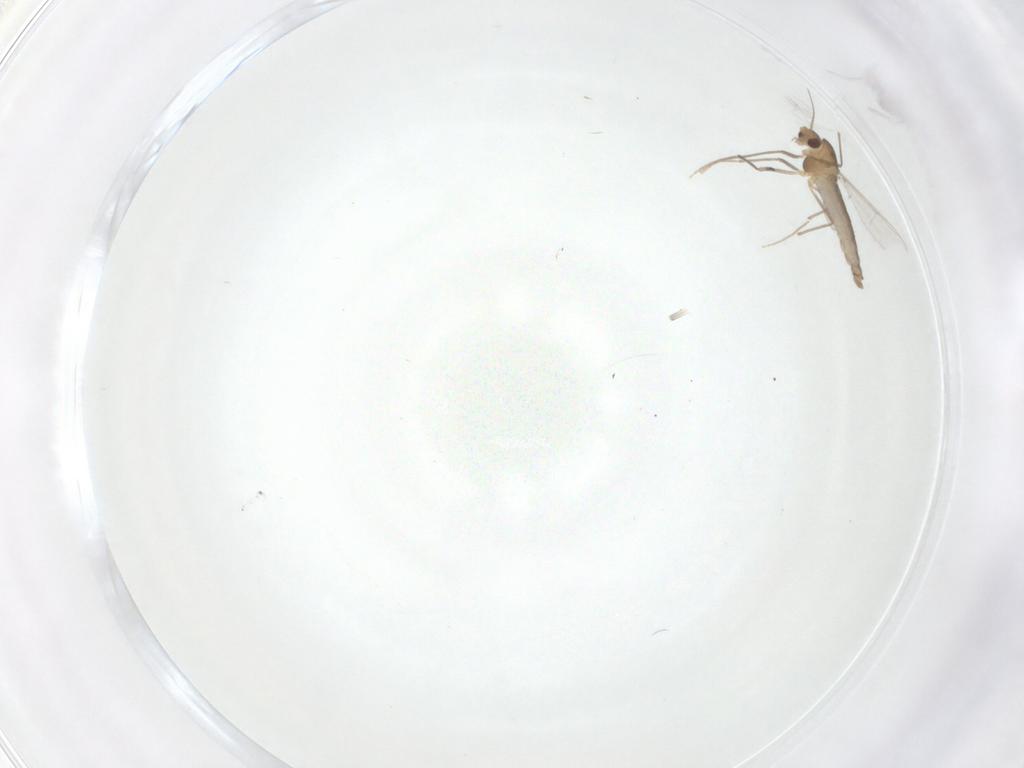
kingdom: Animalia
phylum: Arthropoda
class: Insecta
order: Diptera
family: Chironomidae
